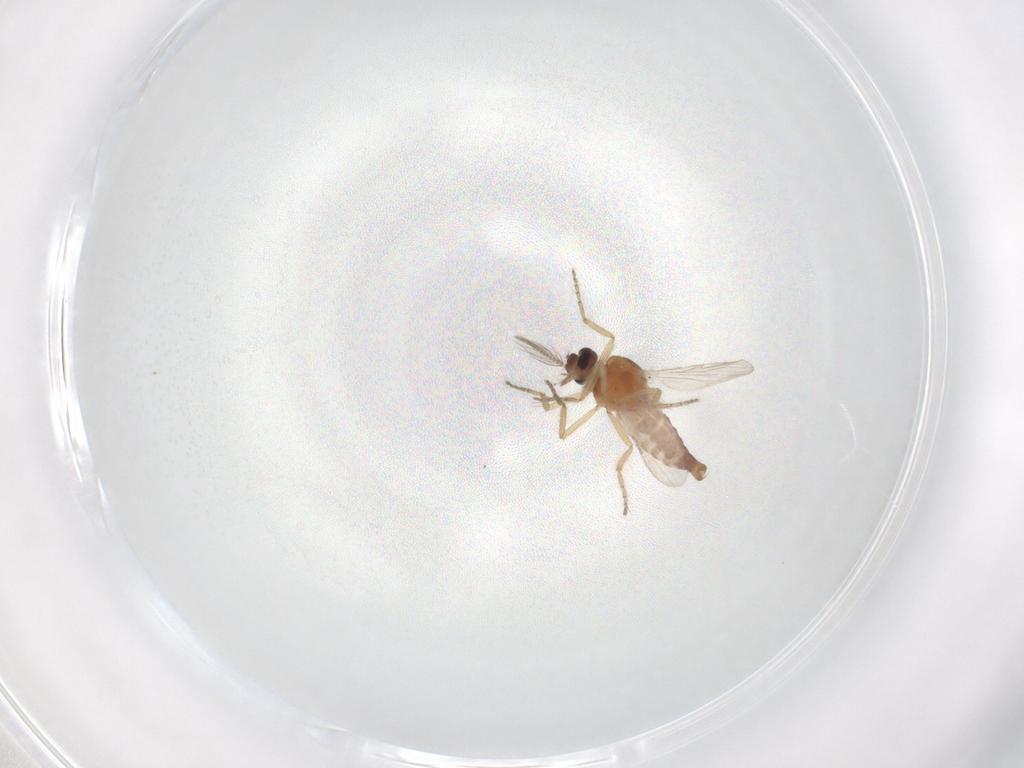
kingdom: Animalia
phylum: Arthropoda
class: Insecta
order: Diptera
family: Ceratopogonidae
